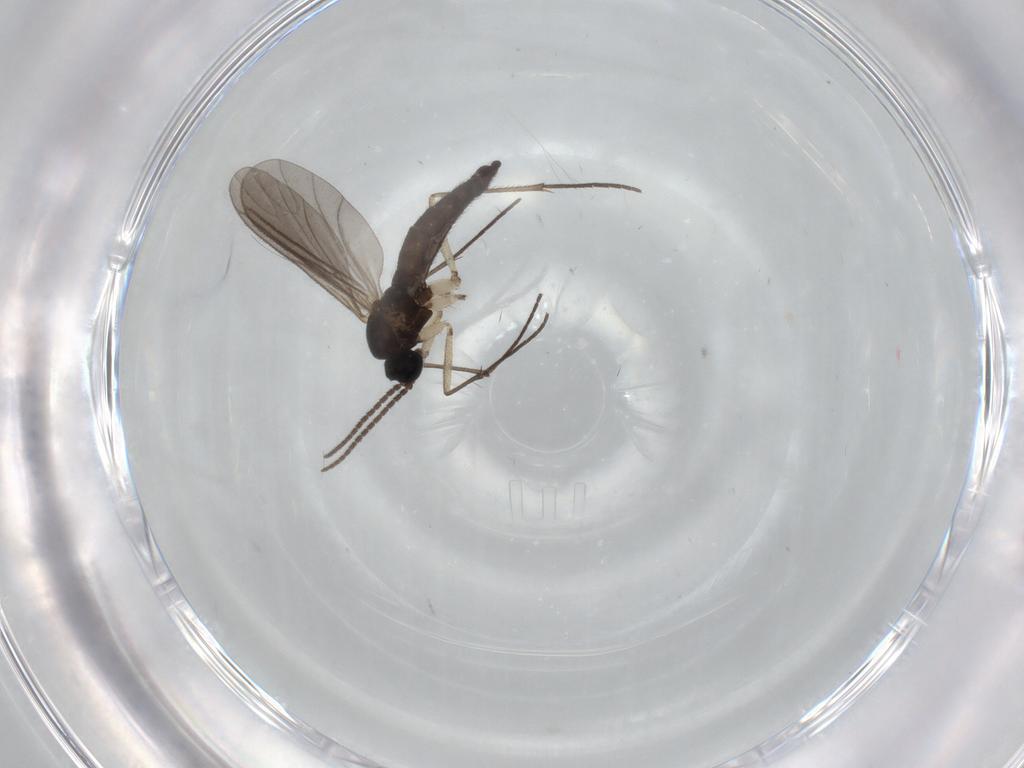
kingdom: Animalia
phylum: Arthropoda
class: Insecta
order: Diptera
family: Sciaridae
